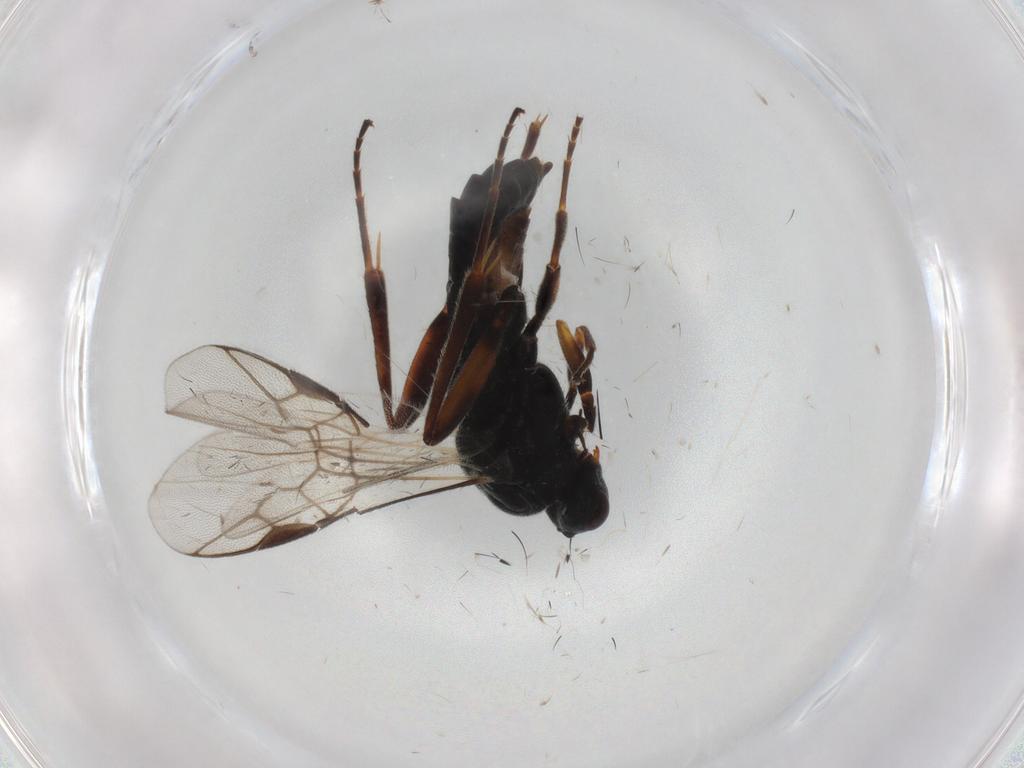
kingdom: Animalia
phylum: Arthropoda
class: Insecta
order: Hymenoptera
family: Braconidae
